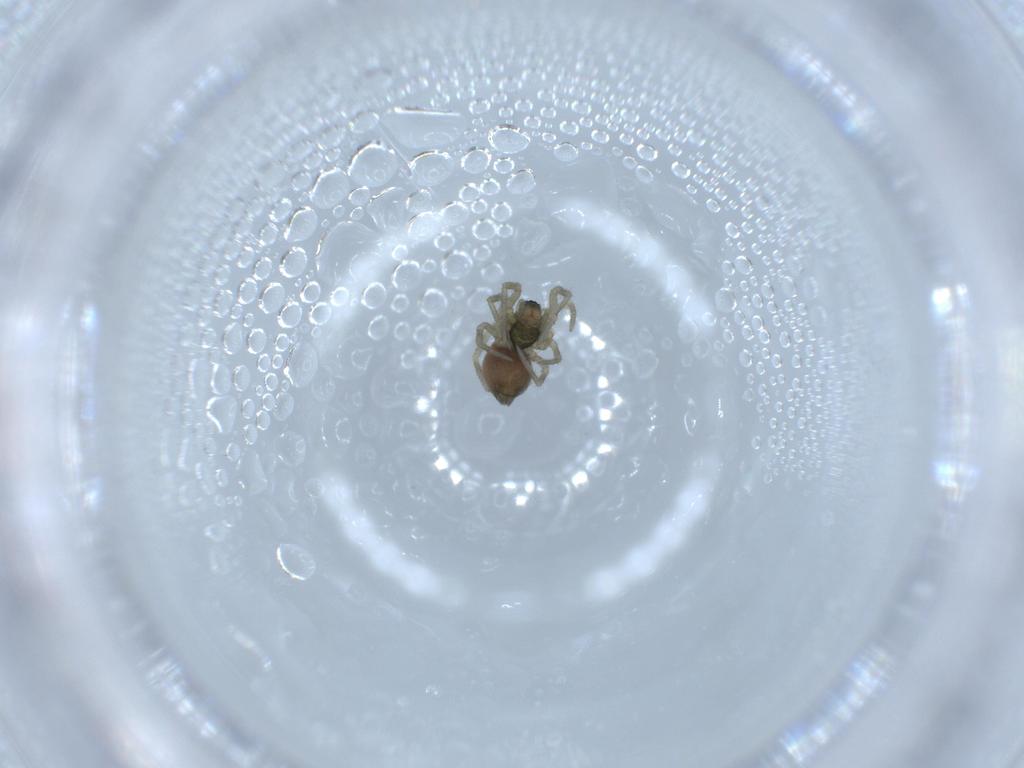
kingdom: Animalia
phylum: Arthropoda
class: Arachnida
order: Araneae
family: Linyphiidae
